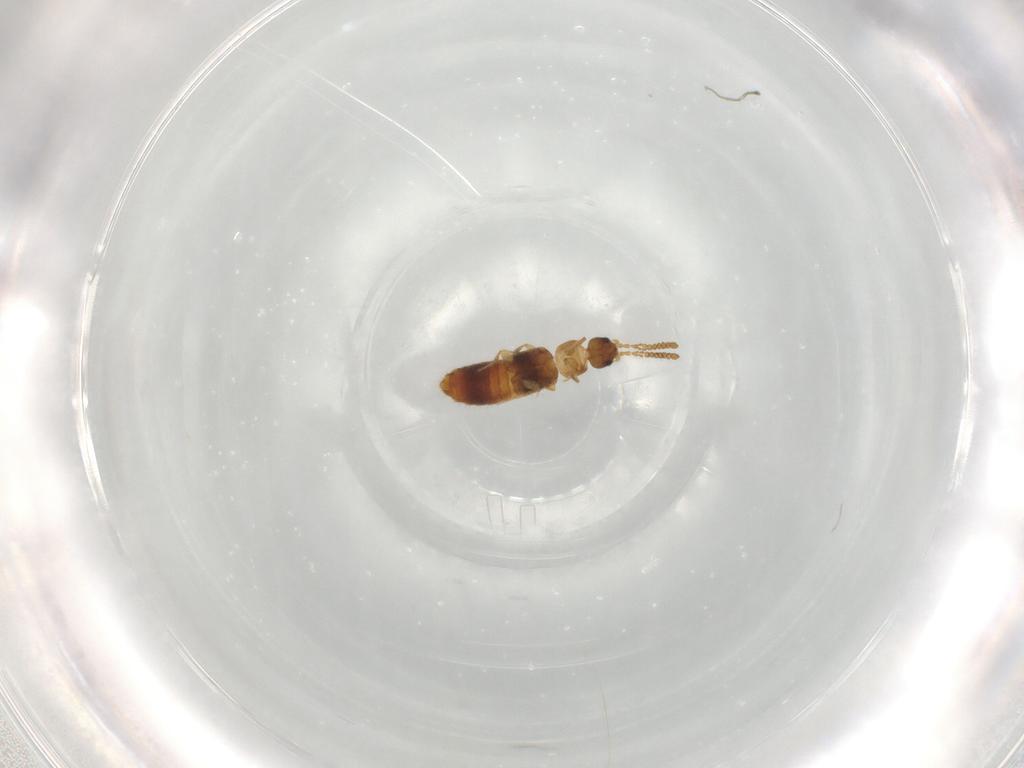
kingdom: Animalia
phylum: Arthropoda
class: Insecta
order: Coleoptera
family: Staphylinidae
